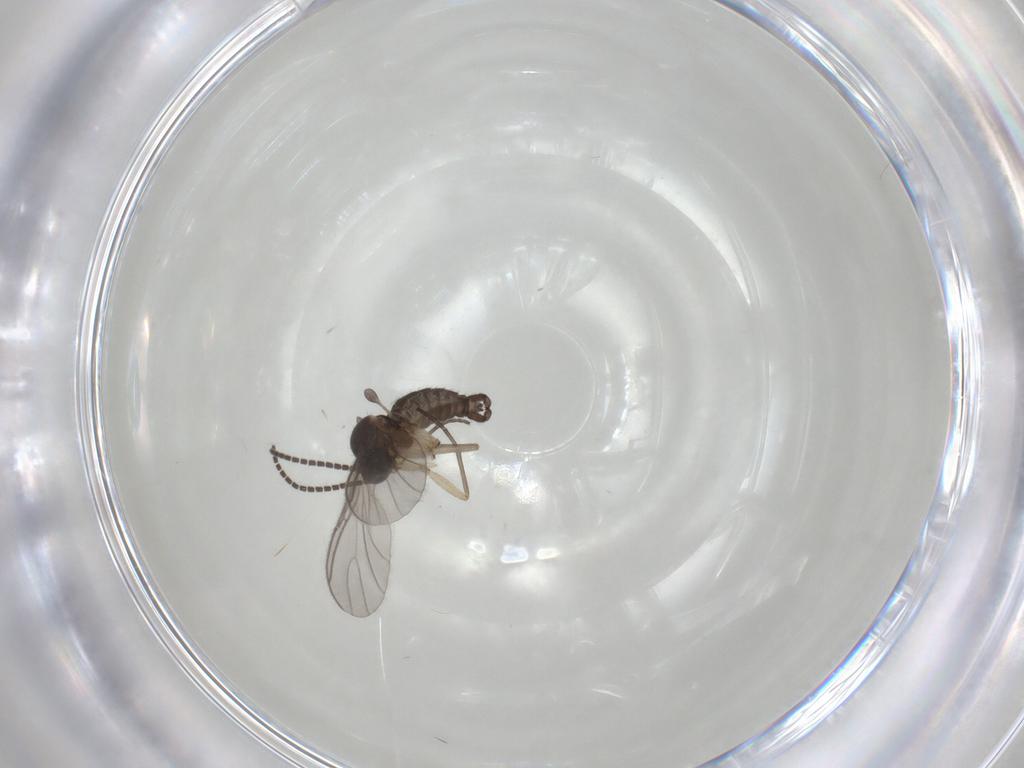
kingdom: Animalia
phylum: Arthropoda
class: Insecta
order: Diptera
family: Sciaridae
